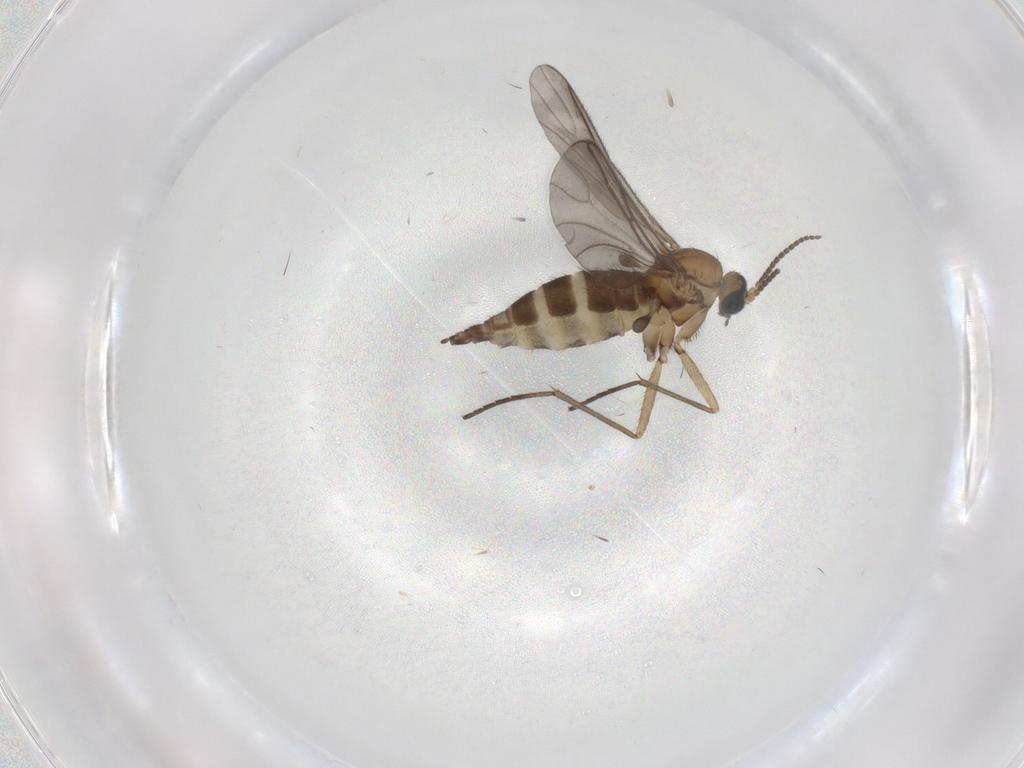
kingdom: Animalia
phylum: Arthropoda
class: Insecta
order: Diptera
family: Sciaridae
